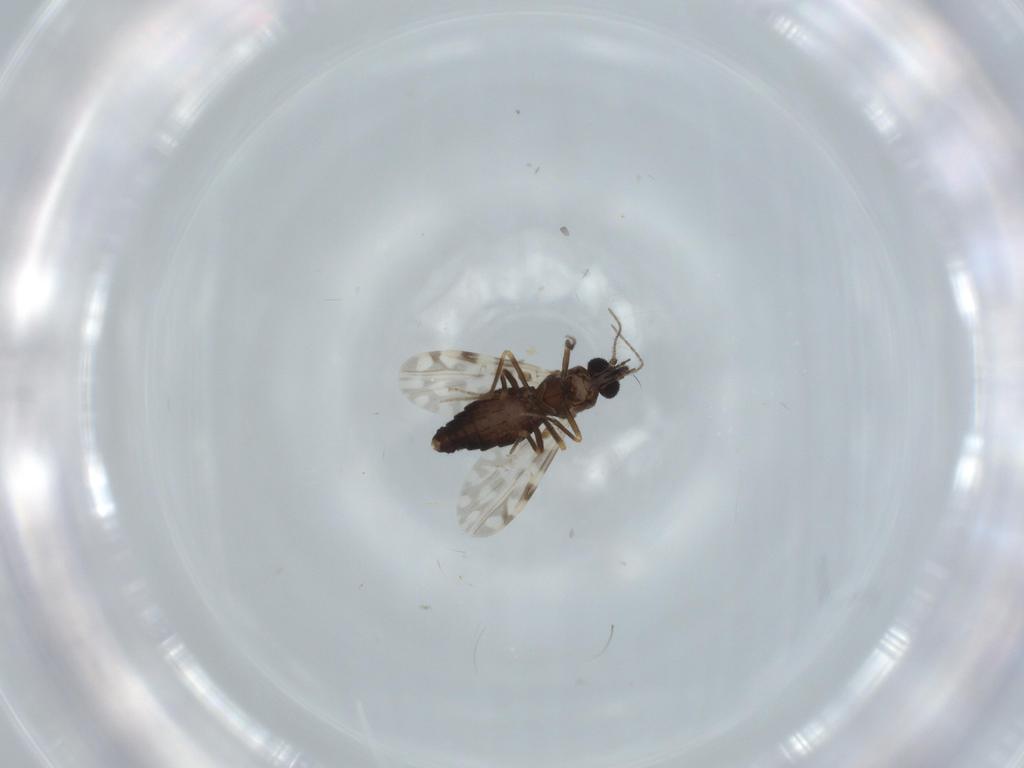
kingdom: Animalia
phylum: Arthropoda
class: Insecta
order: Diptera
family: Ceratopogonidae
